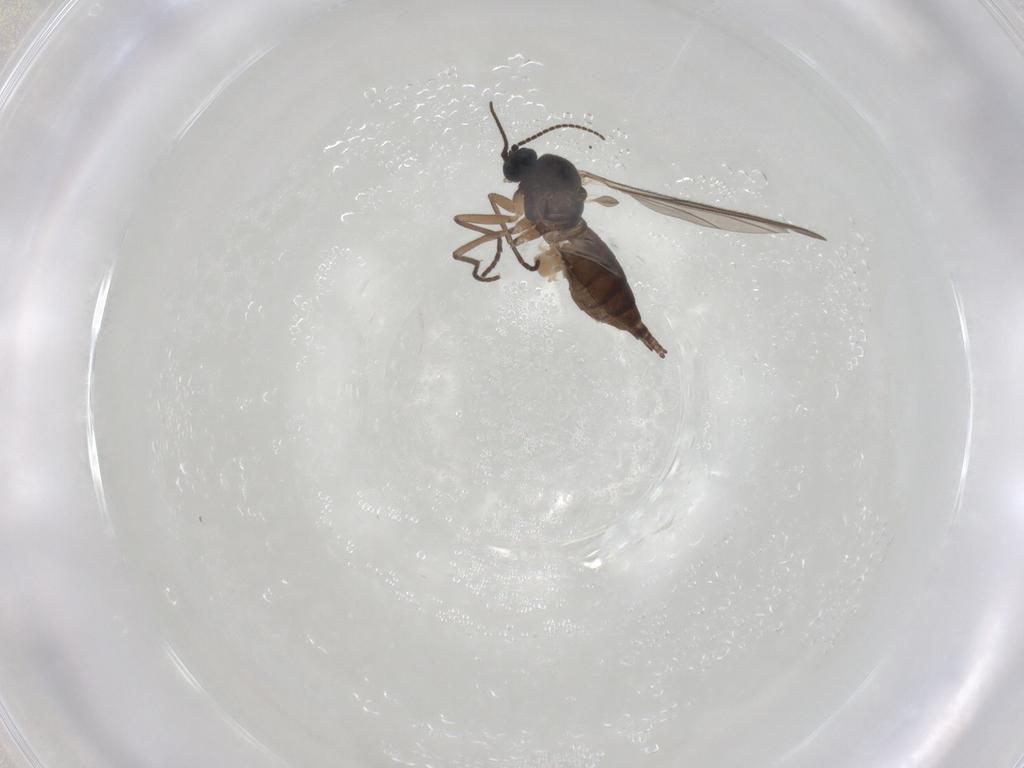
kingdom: Animalia
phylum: Arthropoda
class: Insecta
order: Diptera
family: Sciaridae
